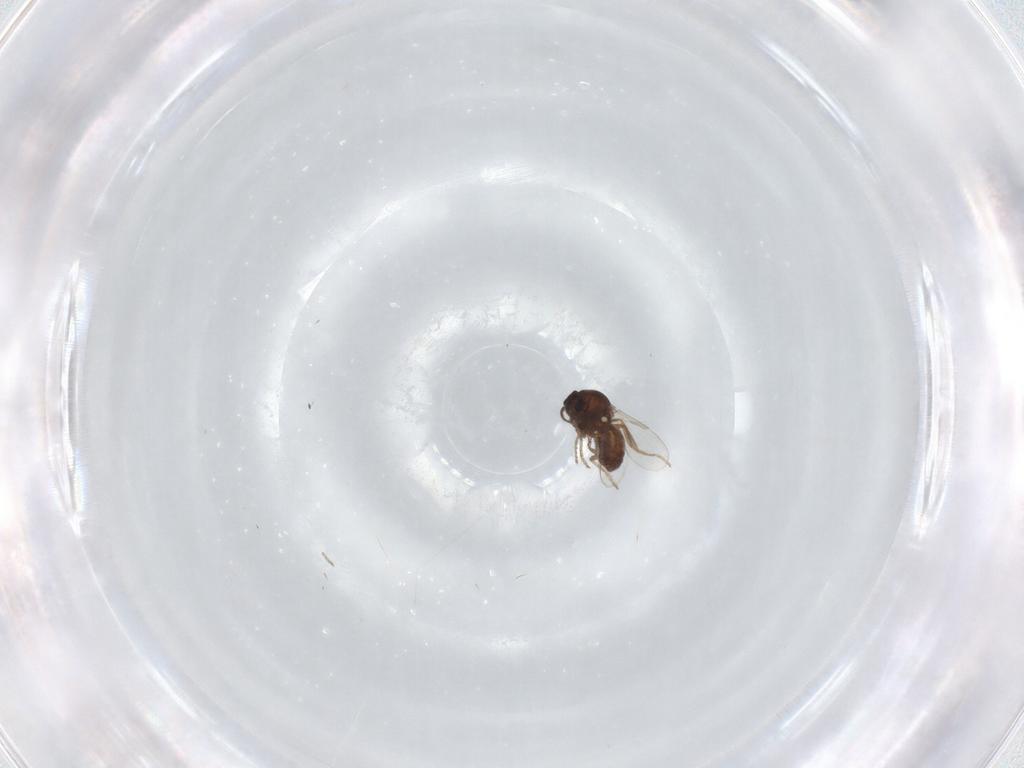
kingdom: Animalia
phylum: Arthropoda
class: Insecta
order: Diptera
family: Ceratopogonidae
